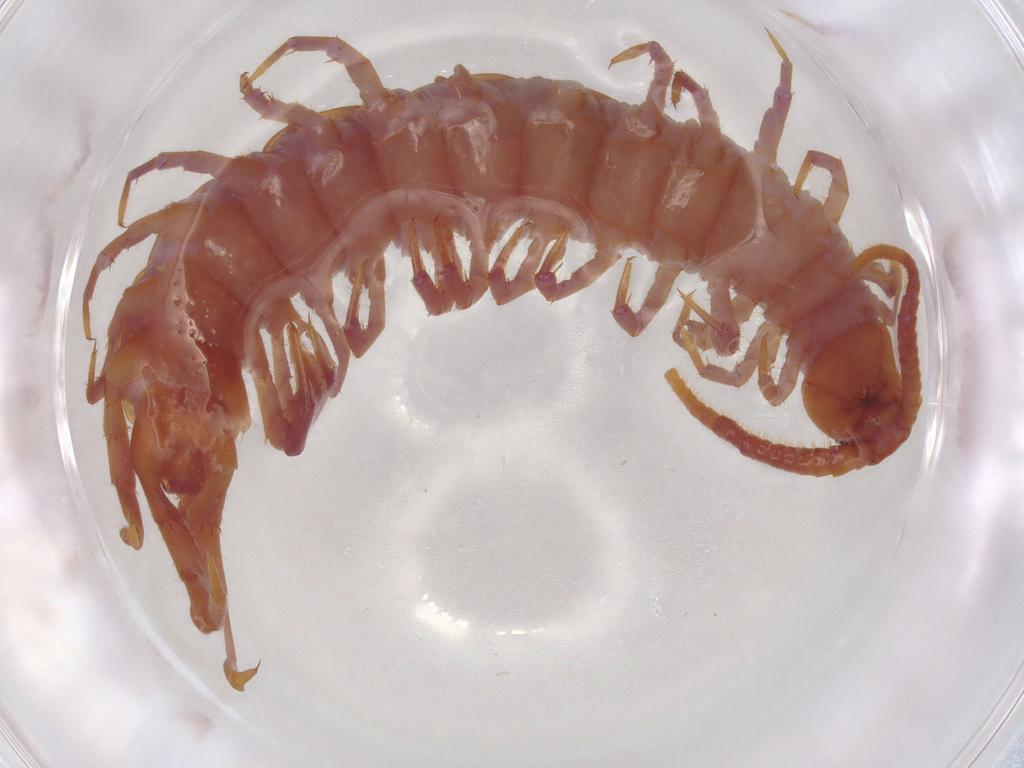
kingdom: Animalia
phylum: Arthropoda
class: Chilopoda
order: Lithobiomorpha
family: Lithobiidae
